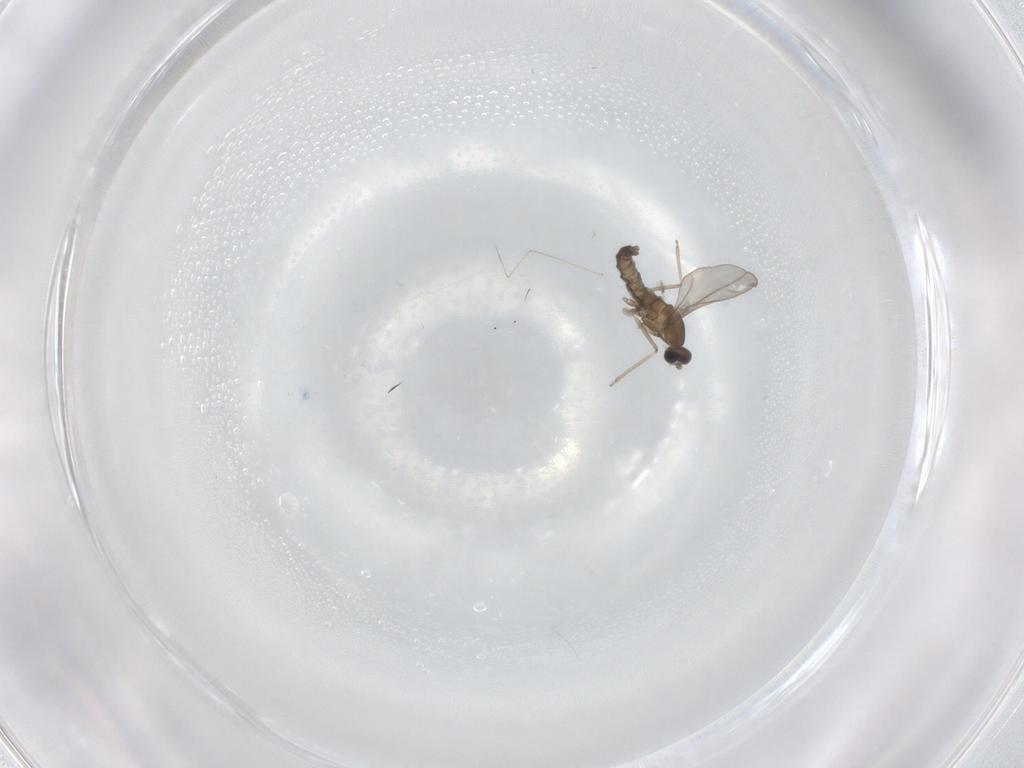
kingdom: Animalia
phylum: Arthropoda
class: Insecta
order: Diptera
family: Cecidomyiidae
